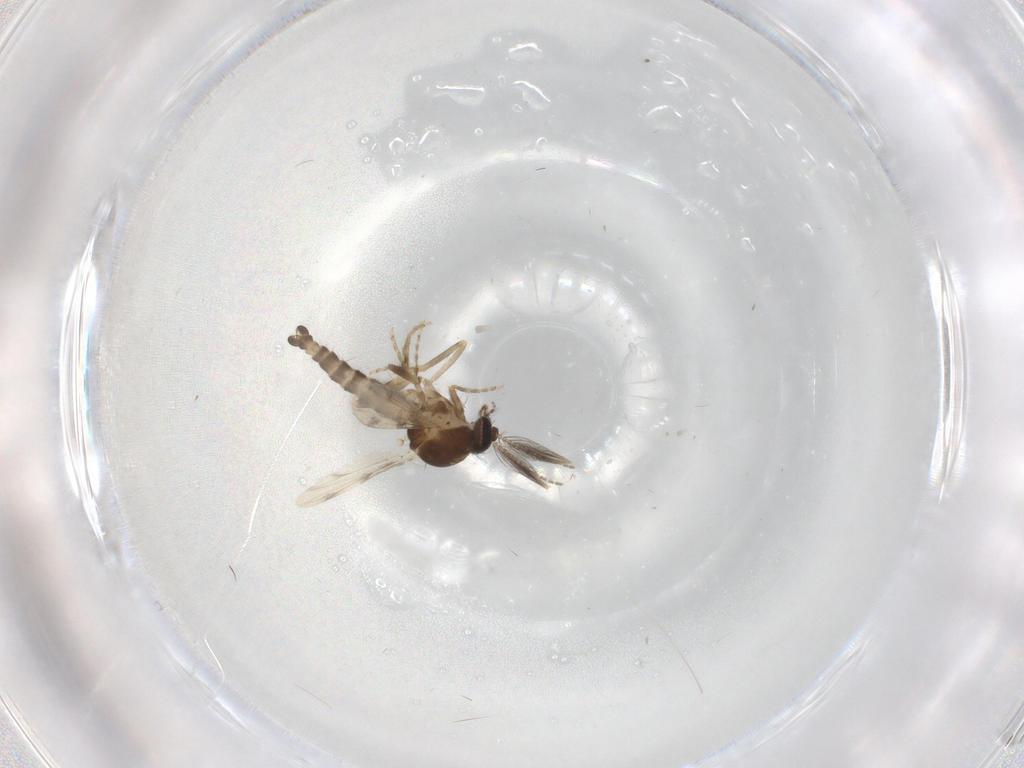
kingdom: Animalia
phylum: Arthropoda
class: Insecta
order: Diptera
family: Ceratopogonidae
